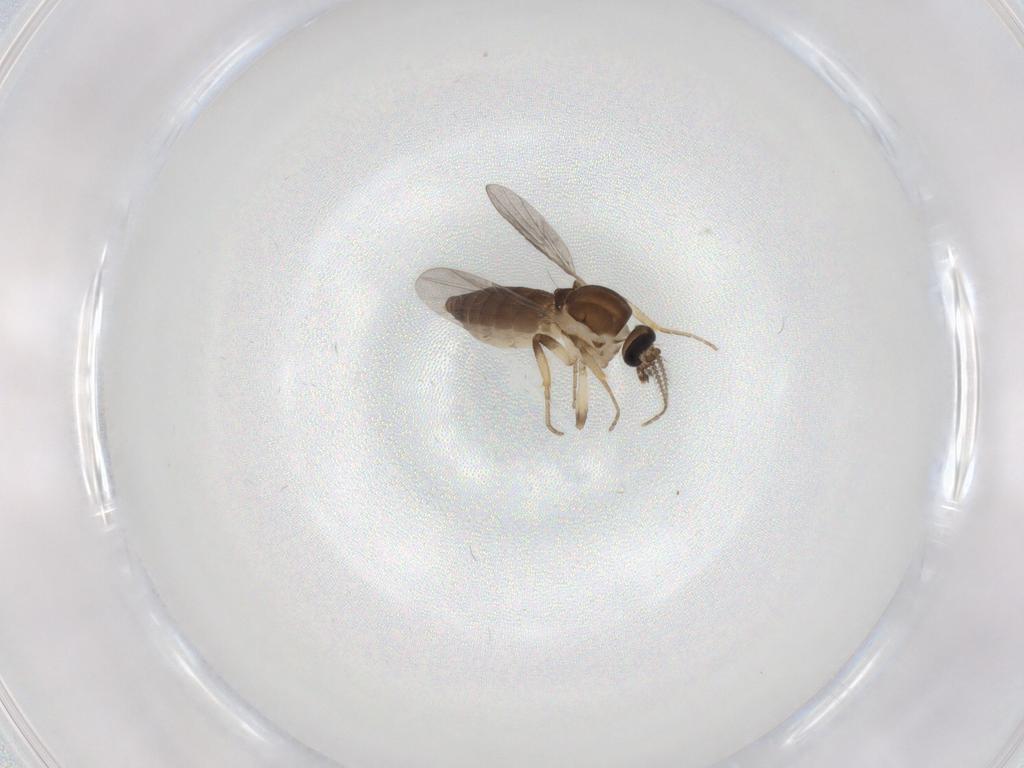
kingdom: Animalia
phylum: Arthropoda
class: Insecta
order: Diptera
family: Ceratopogonidae
